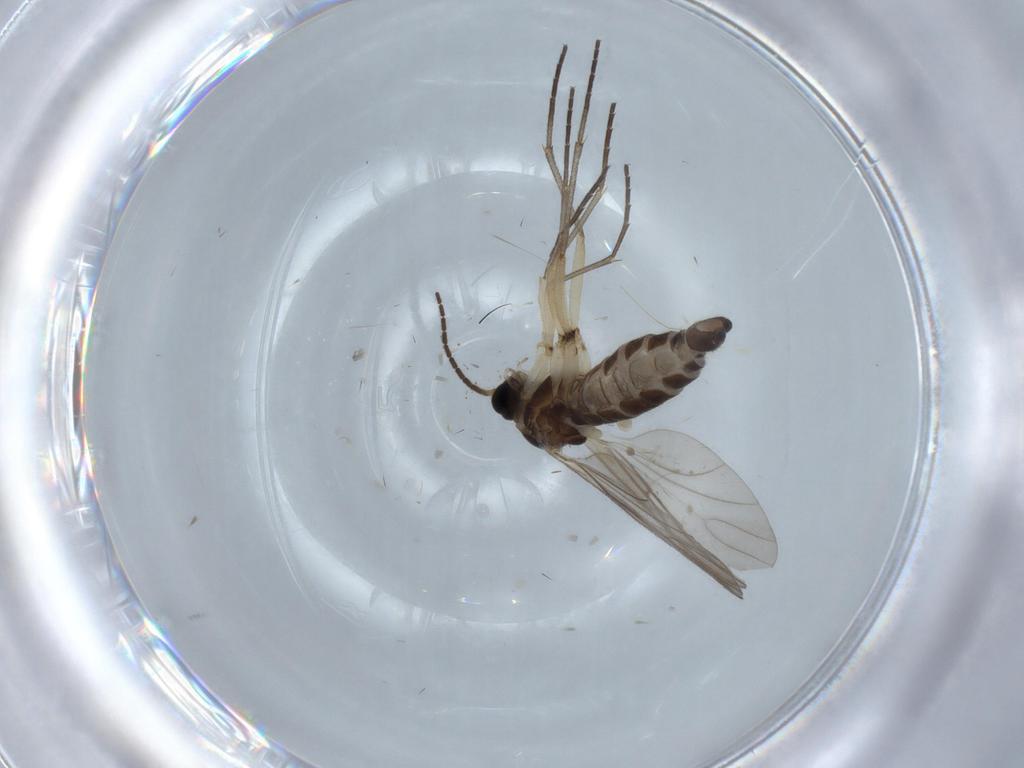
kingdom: Animalia
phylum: Arthropoda
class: Insecta
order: Diptera
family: Sciaridae
